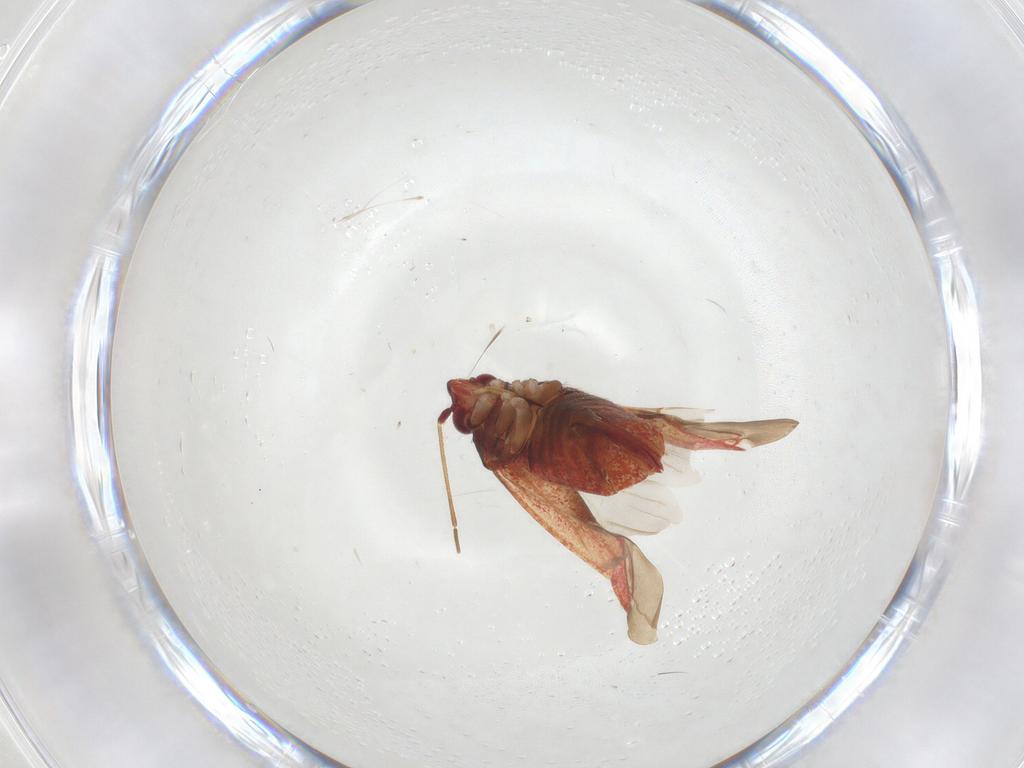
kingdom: Animalia
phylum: Arthropoda
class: Insecta
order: Hemiptera
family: Miridae
